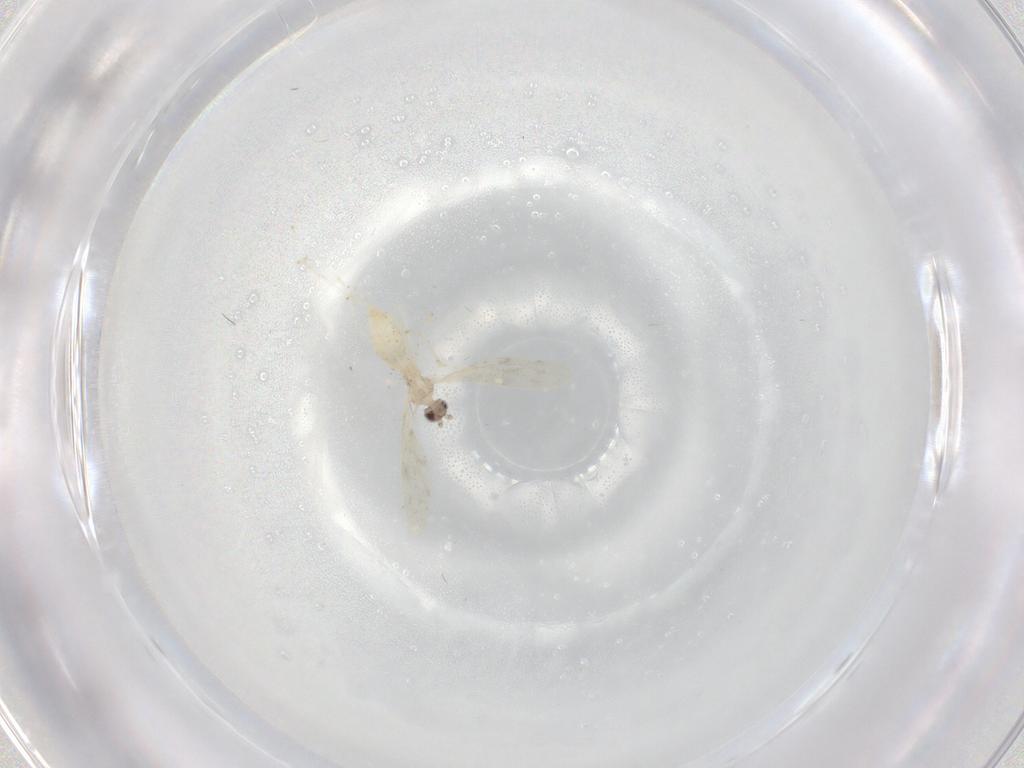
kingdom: Animalia
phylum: Arthropoda
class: Insecta
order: Diptera
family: Cecidomyiidae
